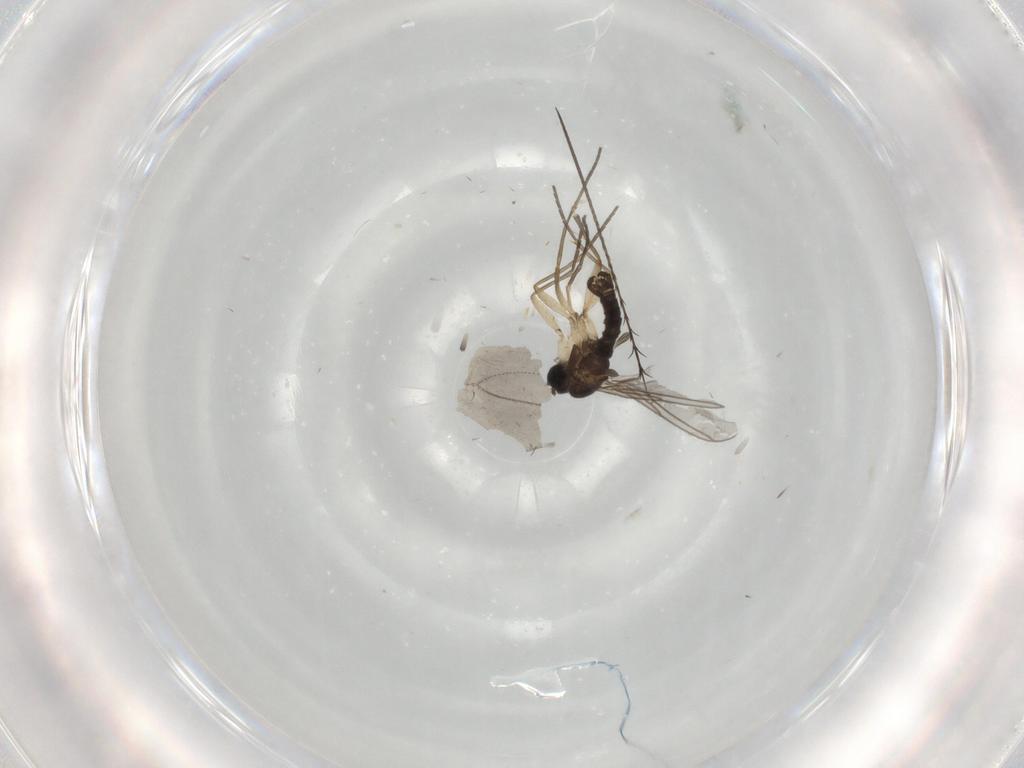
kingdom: Animalia
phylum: Arthropoda
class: Insecta
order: Diptera
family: Sciaridae
